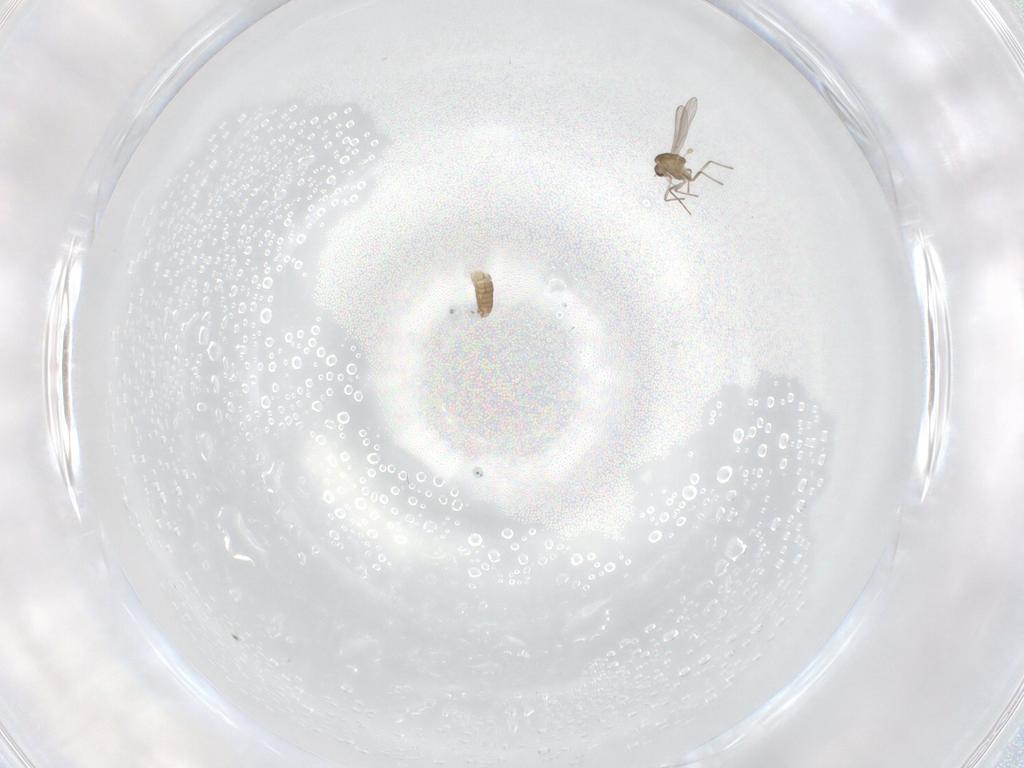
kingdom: Animalia
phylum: Arthropoda
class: Insecta
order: Diptera
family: Chironomidae
